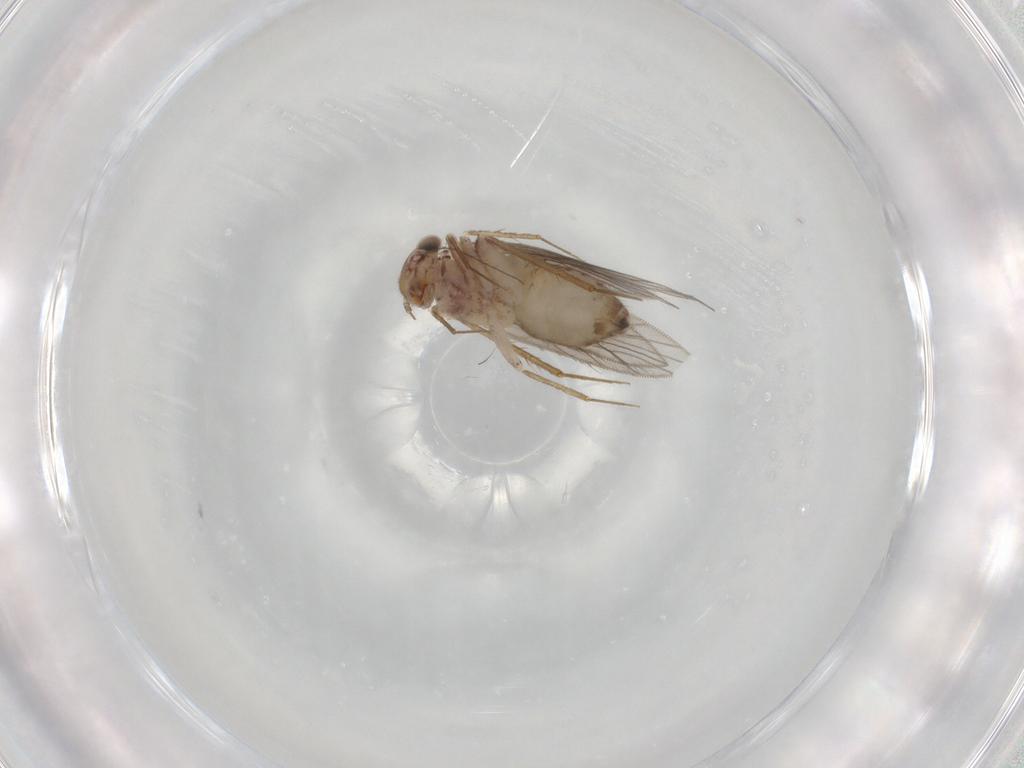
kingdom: Animalia
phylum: Arthropoda
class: Insecta
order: Psocodea
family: Lepidopsocidae
